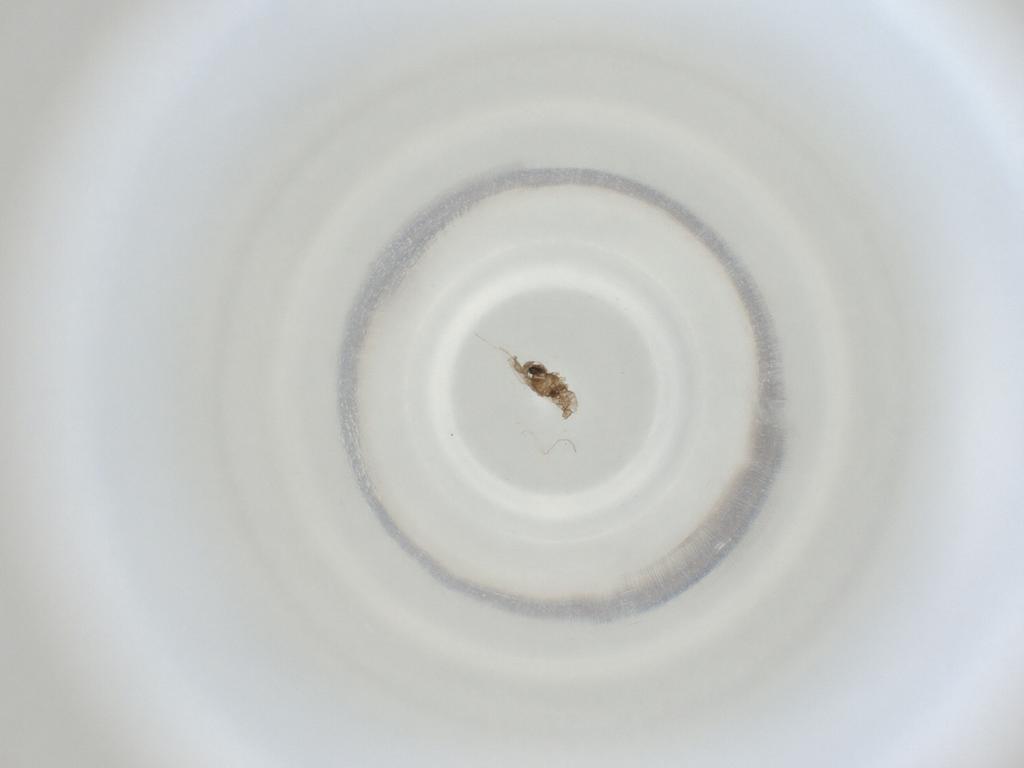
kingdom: Animalia
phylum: Arthropoda
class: Insecta
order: Diptera
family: Cecidomyiidae
